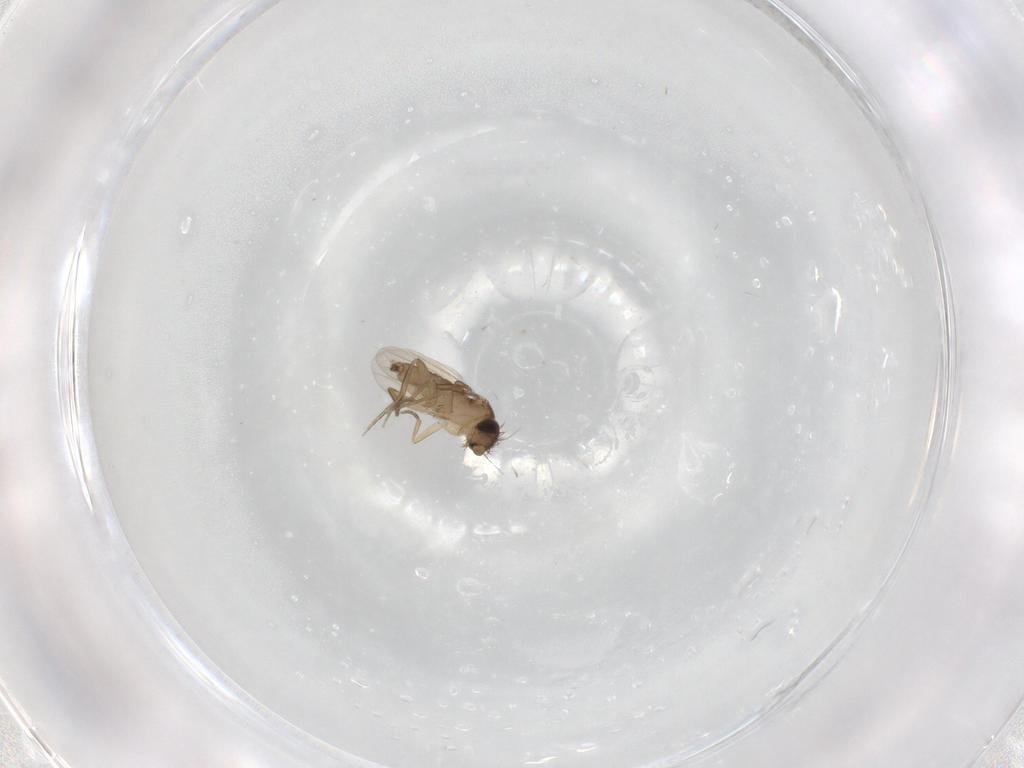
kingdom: Animalia
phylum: Arthropoda
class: Insecta
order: Diptera
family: Phoridae
